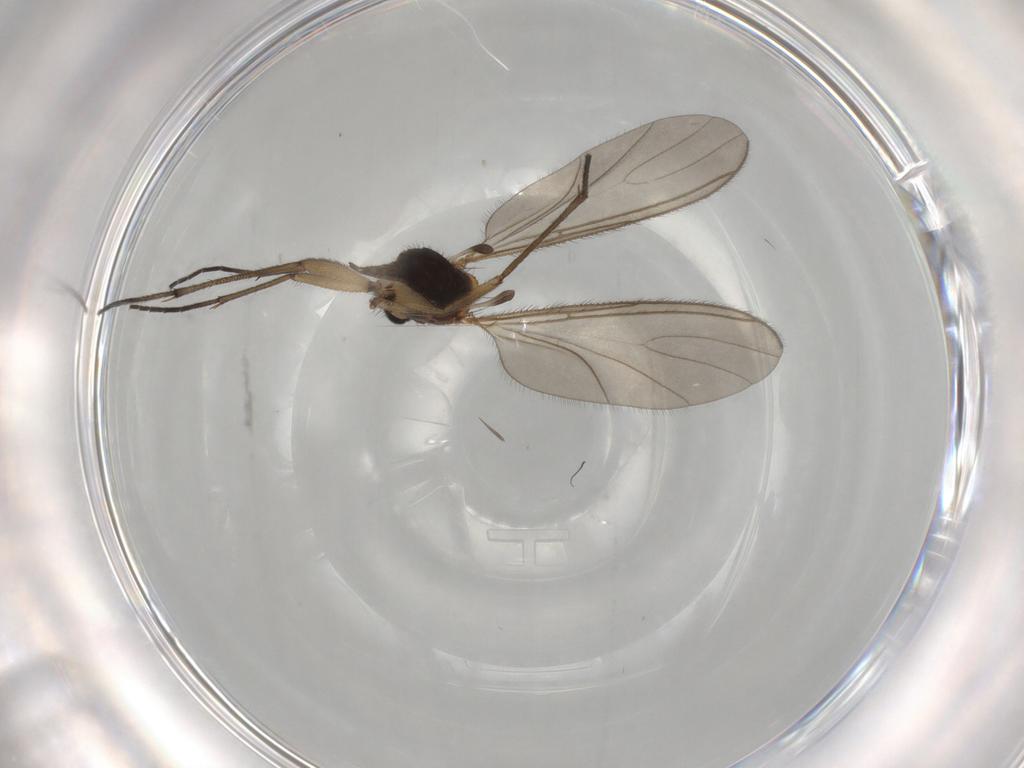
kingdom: Animalia
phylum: Arthropoda
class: Insecta
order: Diptera
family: Sciaridae
